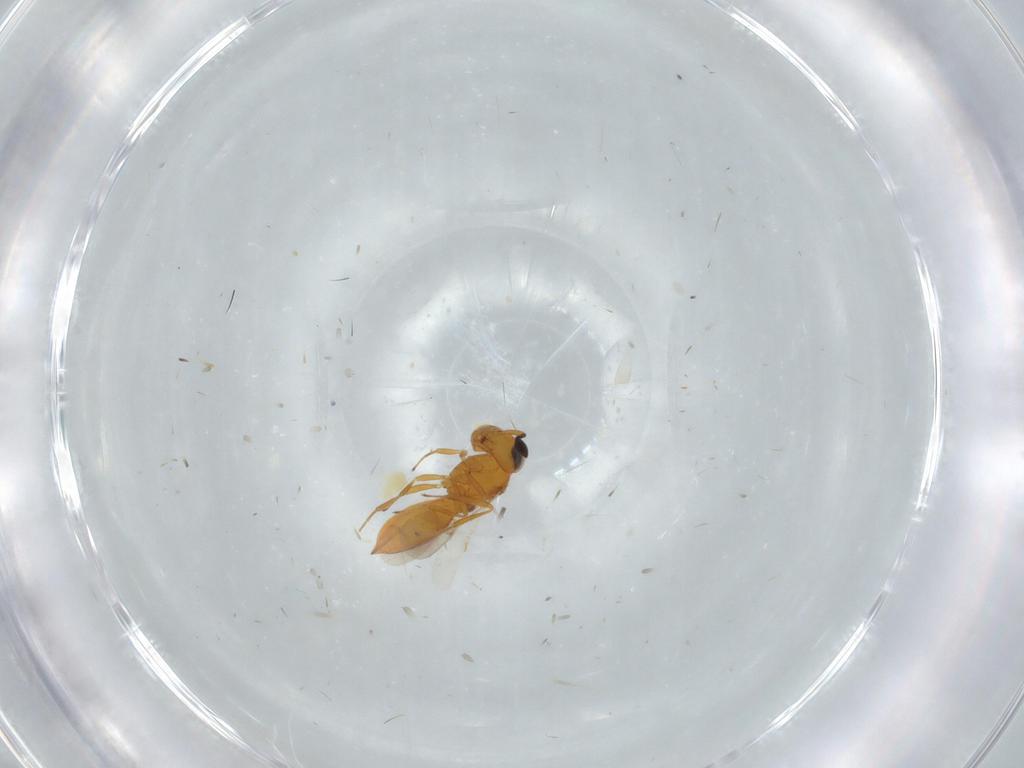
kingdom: Animalia
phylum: Arthropoda
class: Insecta
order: Hymenoptera
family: Scelionidae
